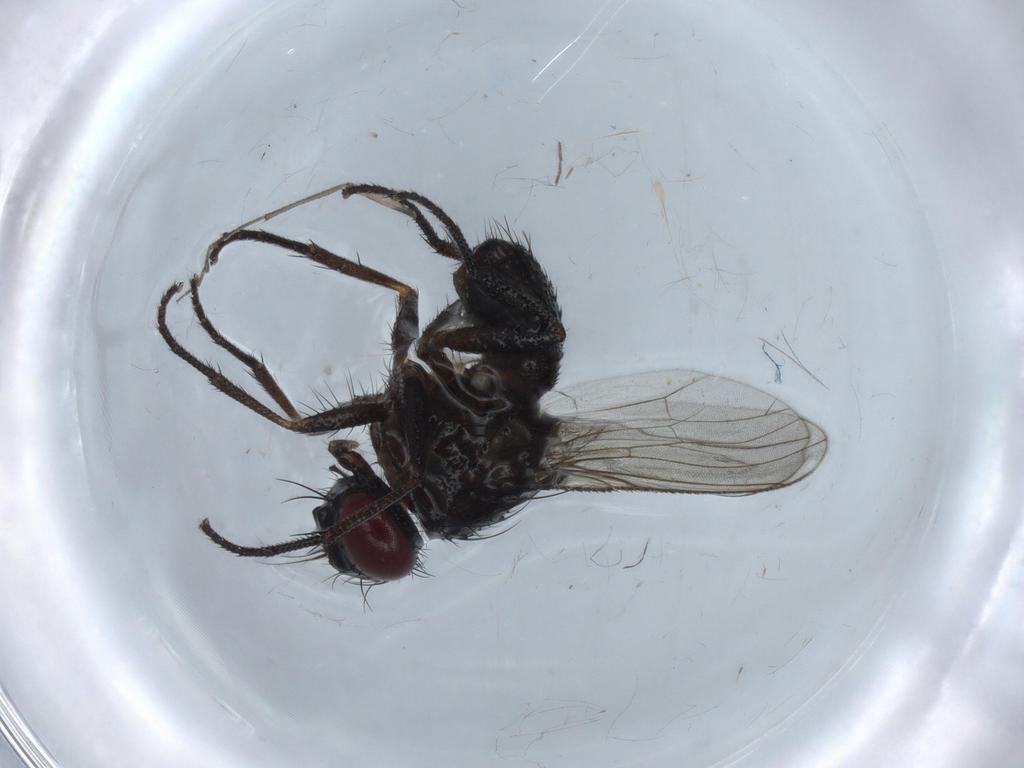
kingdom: Animalia
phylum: Arthropoda
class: Insecta
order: Diptera
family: Muscidae
